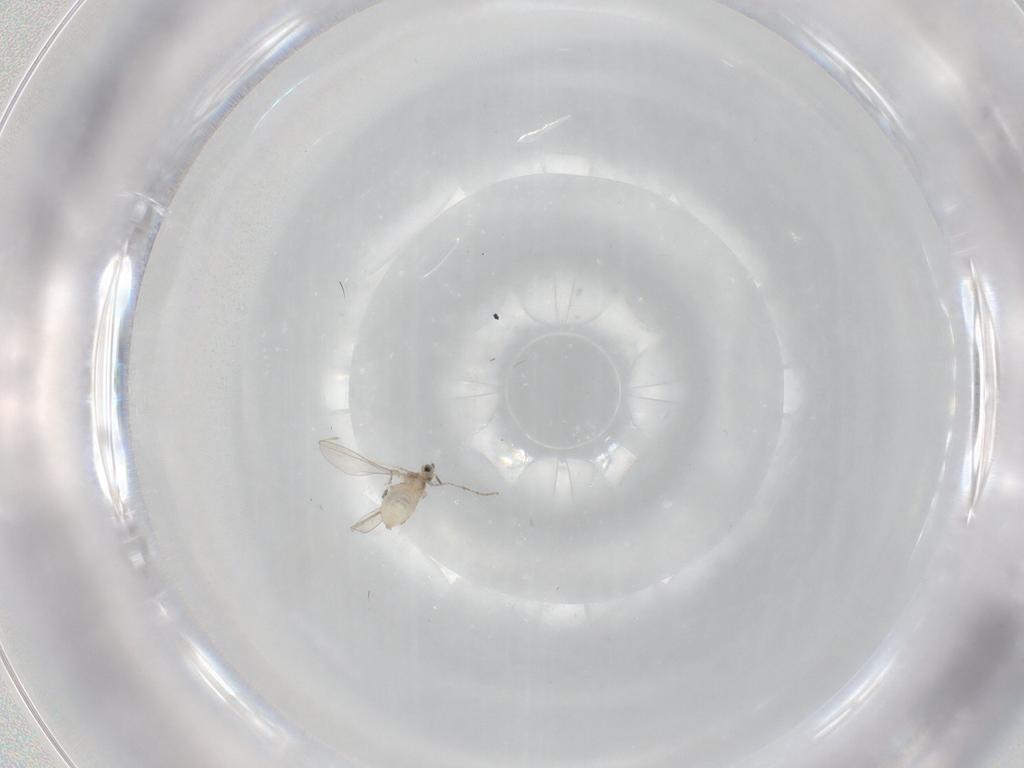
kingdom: Animalia
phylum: Arthropoda
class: Insecta
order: Diptera
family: Cecidomyiidae
